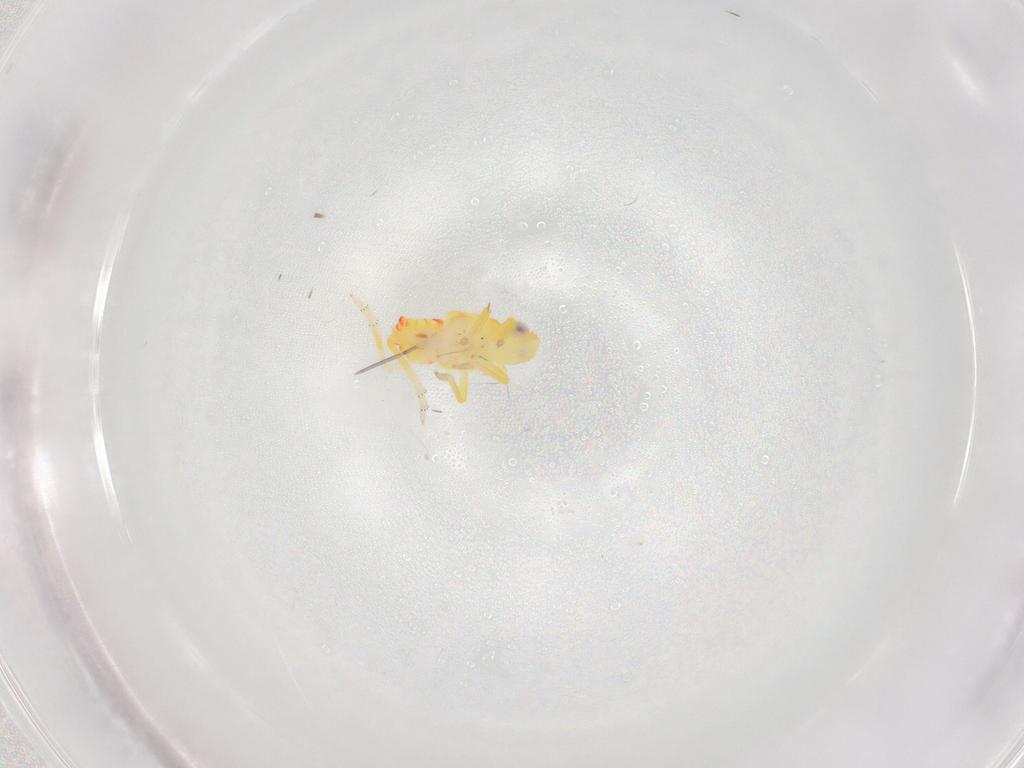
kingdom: Animalia
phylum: Arthropoda
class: Insecta
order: Hemiptera
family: Tropiduchidae
